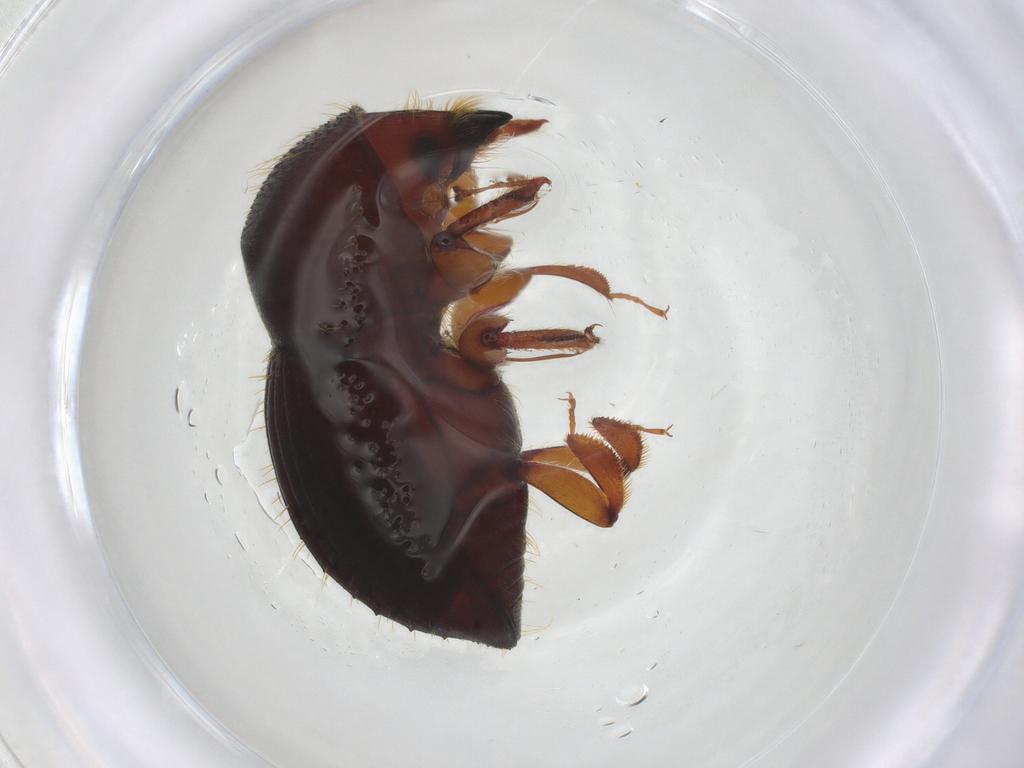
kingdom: Animalia
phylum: Arthropoda
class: Insecta
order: Coleoptera
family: Curculionidae
